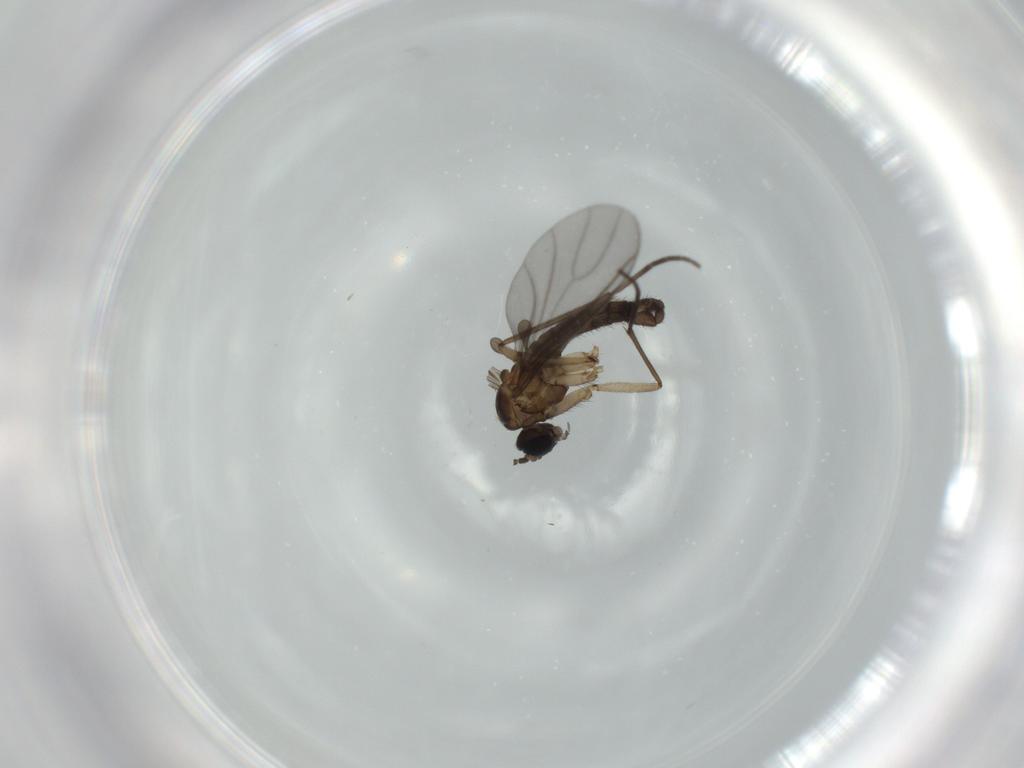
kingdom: Animalia
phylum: Arthropoda
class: Insecta
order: Diptera
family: Sciaridae
